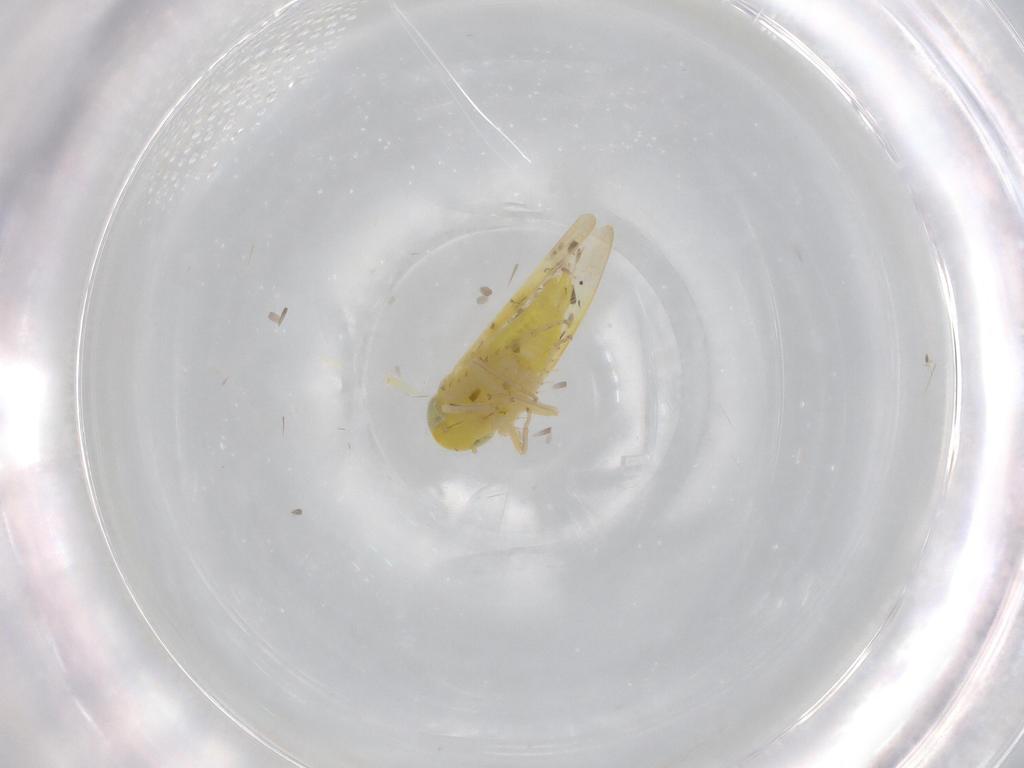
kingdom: Animalia
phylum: Arthropoda
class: Insecta
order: Hemiptera
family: Cicadellidae
